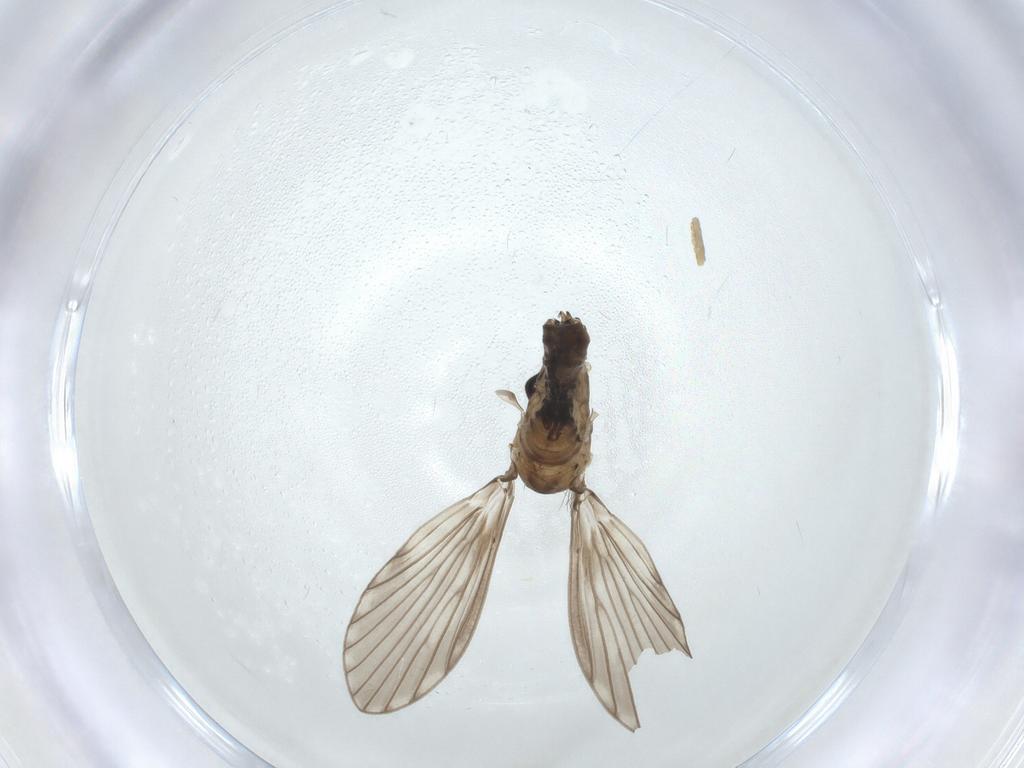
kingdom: Animalia
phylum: Arthropoda
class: Insecta
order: Diptera
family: Psychodidae
